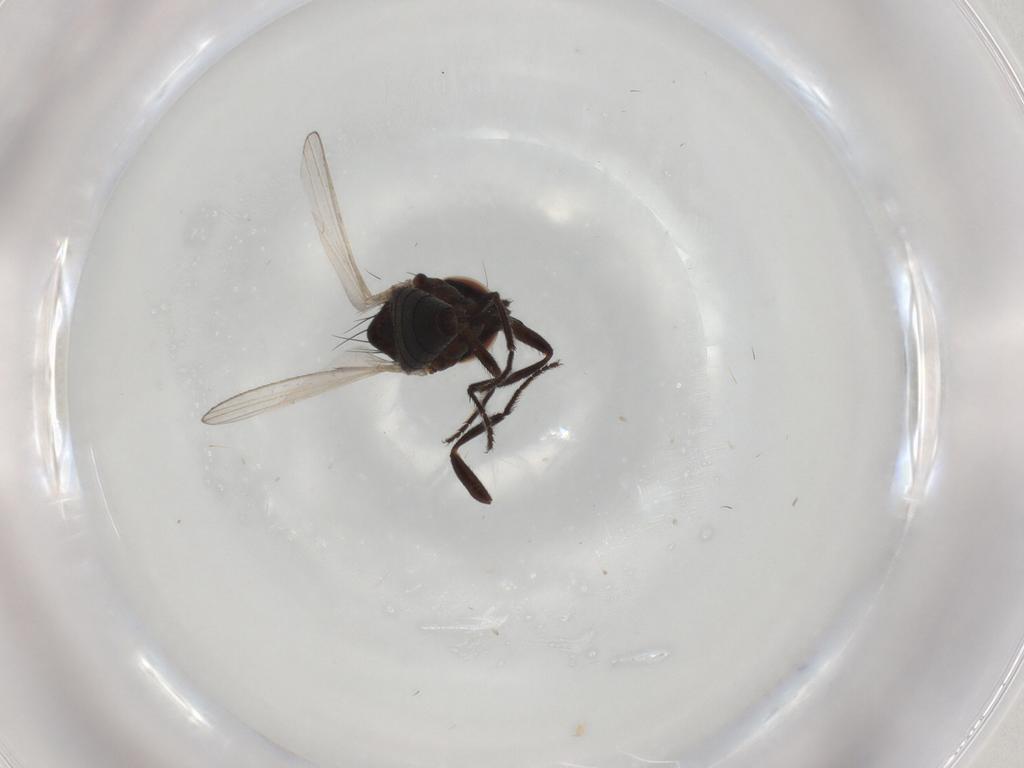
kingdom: Animalia
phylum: Arthropoda
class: Insecta
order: Diptera
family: Milichiidae
